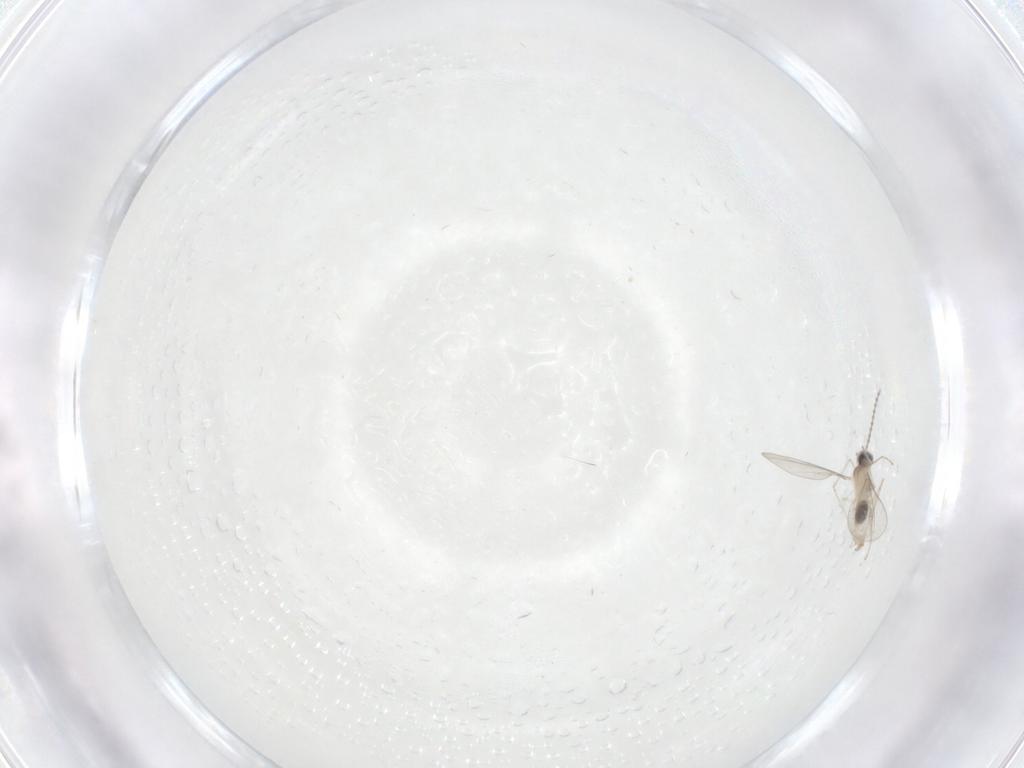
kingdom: Animalia
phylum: Arthropoda
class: Insecta
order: Diptera
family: Cecidomyiidae
